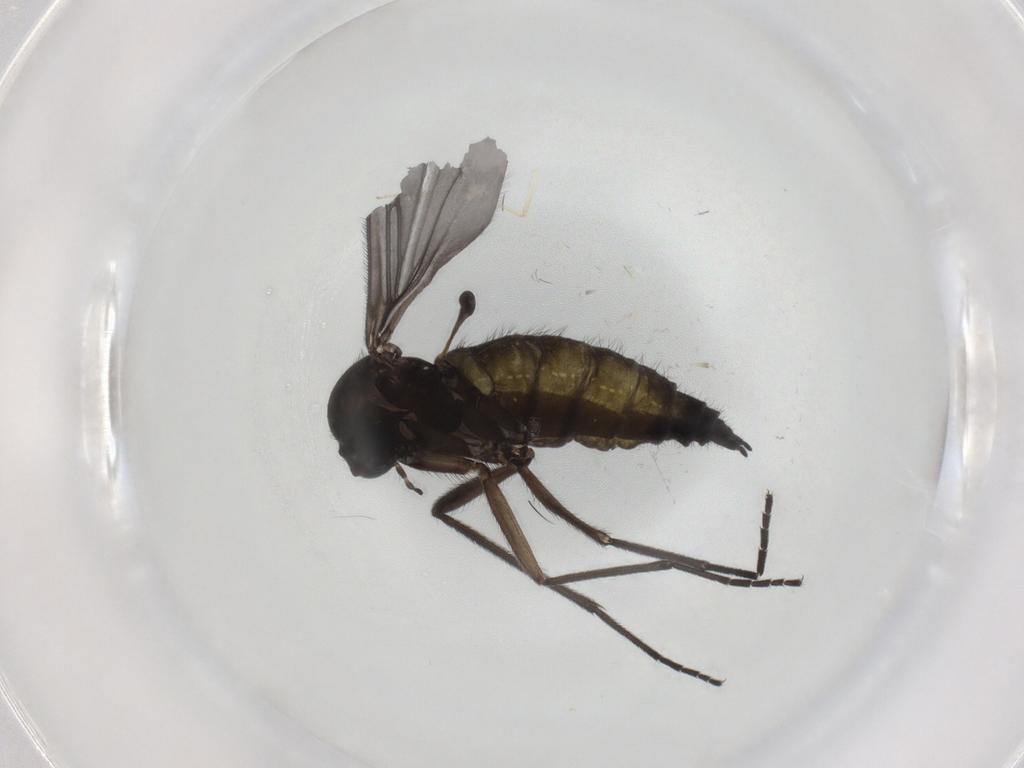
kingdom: Animalia
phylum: Arthropoda
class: Insecta
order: Diptera
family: Sciaridae
